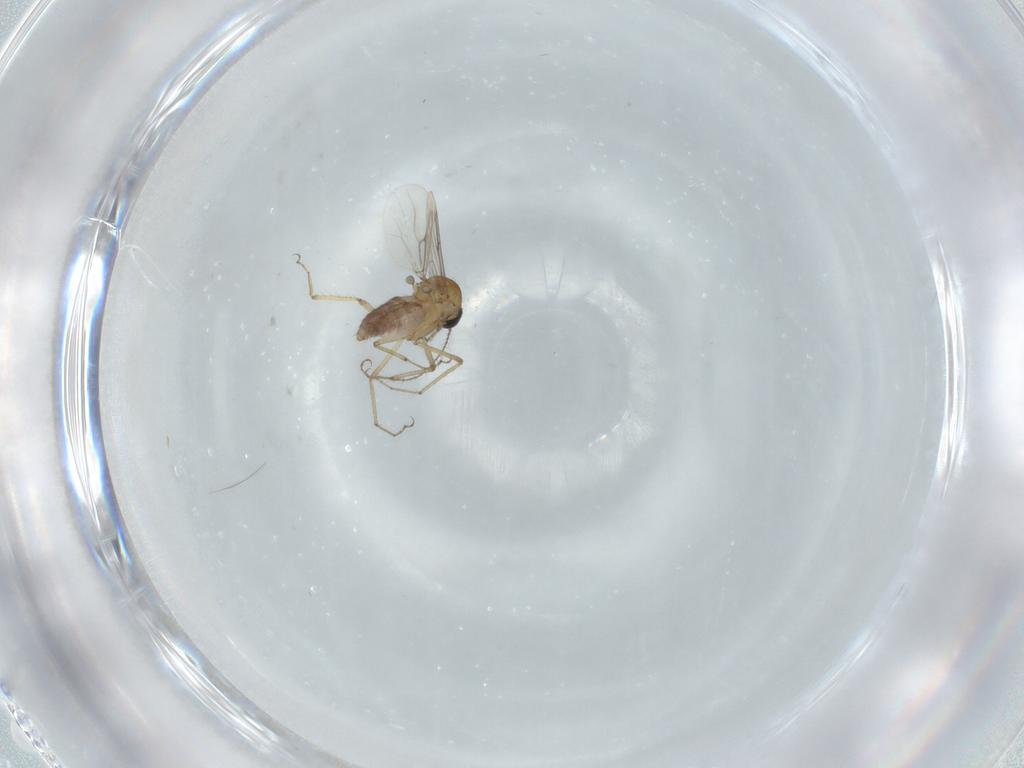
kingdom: Animalia
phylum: Arthropoda
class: Insecta
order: Diptera
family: Ceratopogonidae
